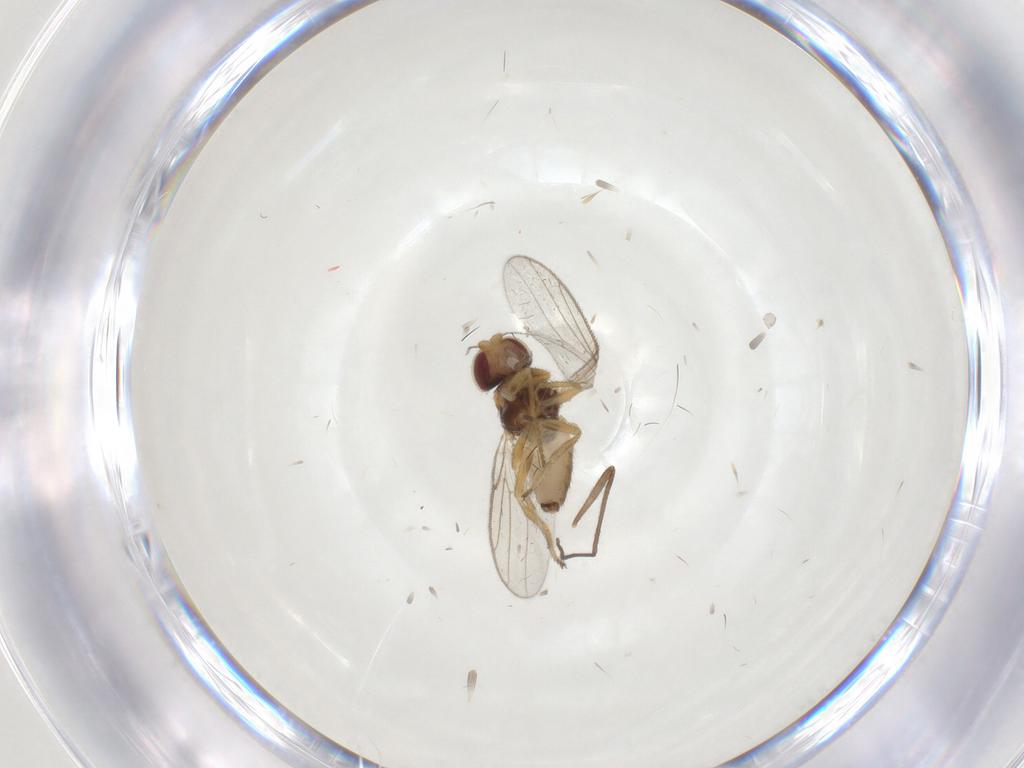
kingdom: Animalia
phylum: Arthropoda
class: Insecta
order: Diptera
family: Chloropidae
